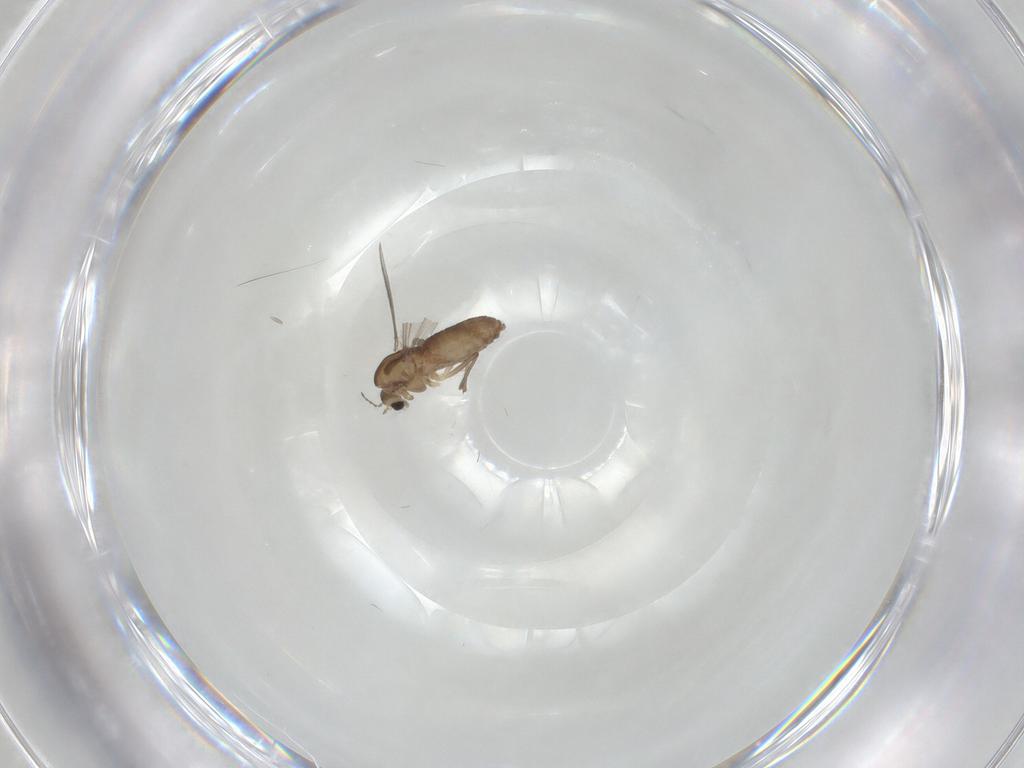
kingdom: Animalia
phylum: Arthropoda
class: Insecta
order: Diptera
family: Chironomidae
